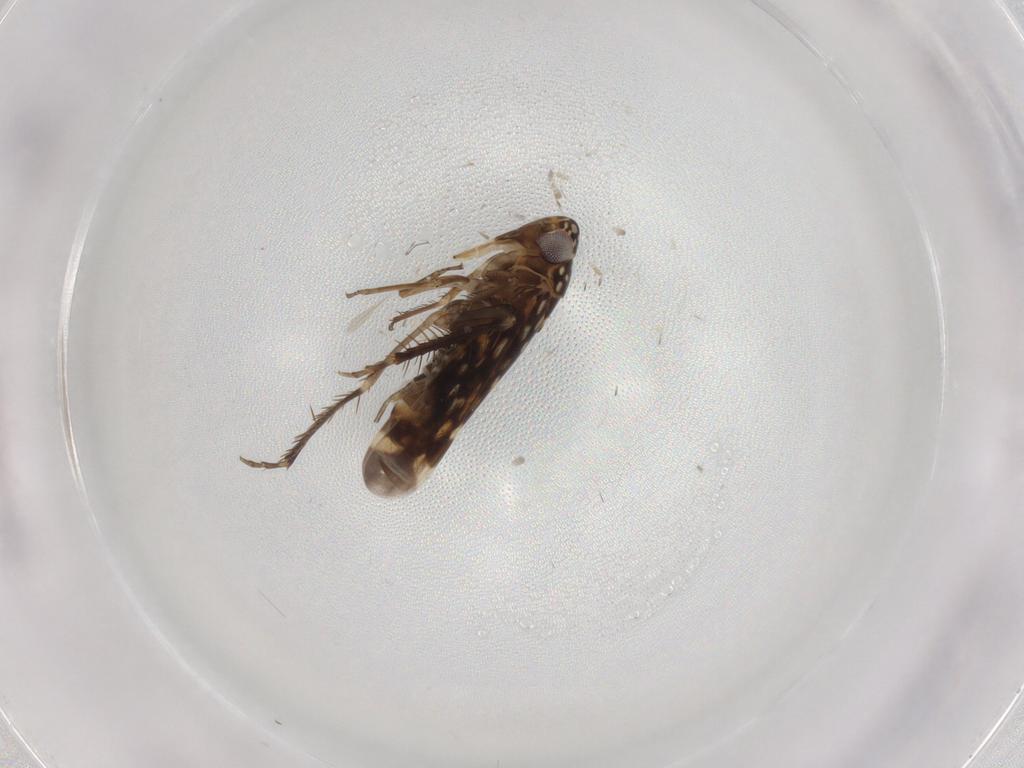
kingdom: Animalia
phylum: Arthropoda
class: Insecta
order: Hemiptera
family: Cicadellidae
